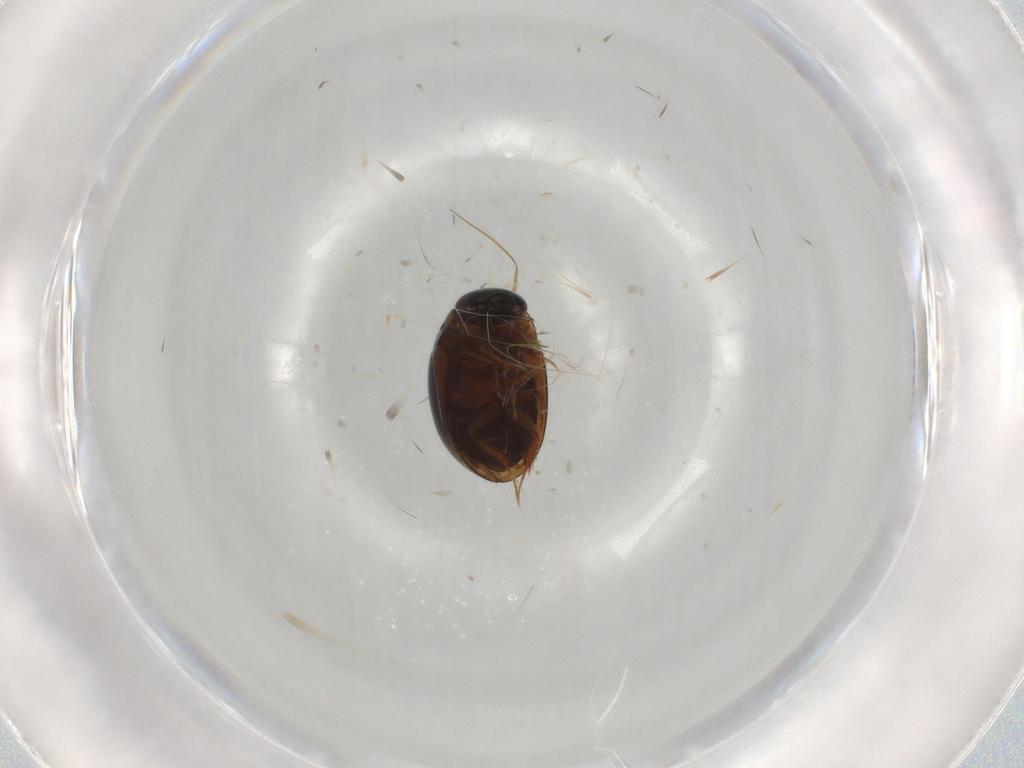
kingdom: Animalia
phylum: Arthropoda
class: Insecta
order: Coleoptera
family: Hydrophilidae
